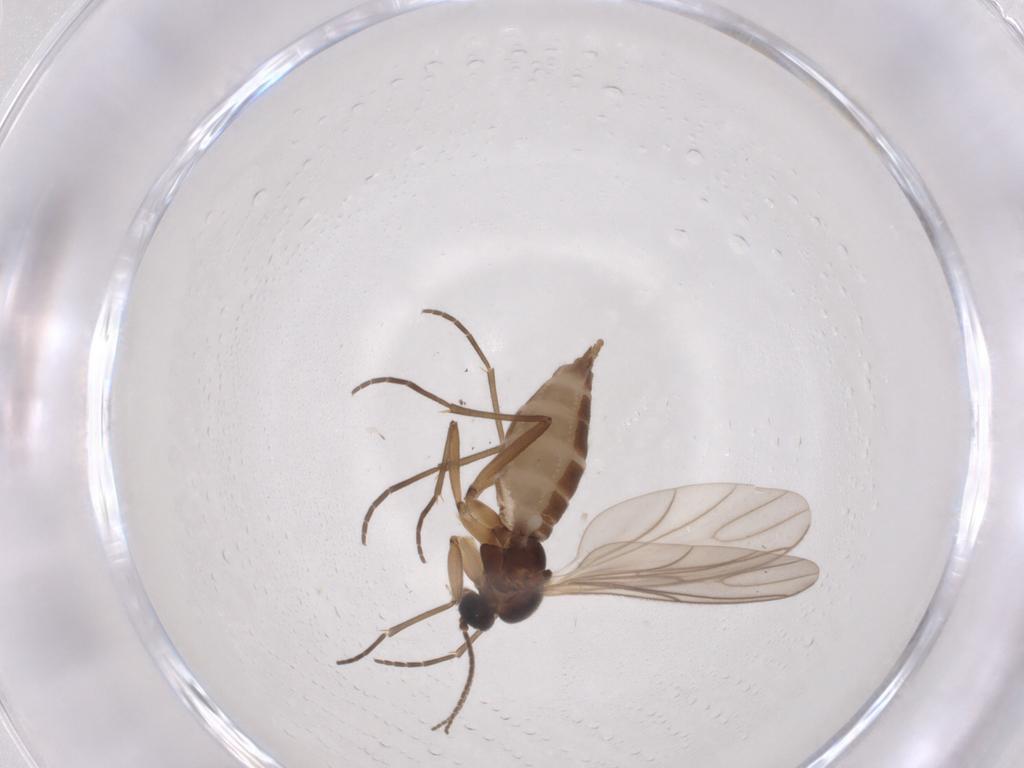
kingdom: Animalia
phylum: Arthropoda
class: Insecta
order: Diptera
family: Sciaridae
